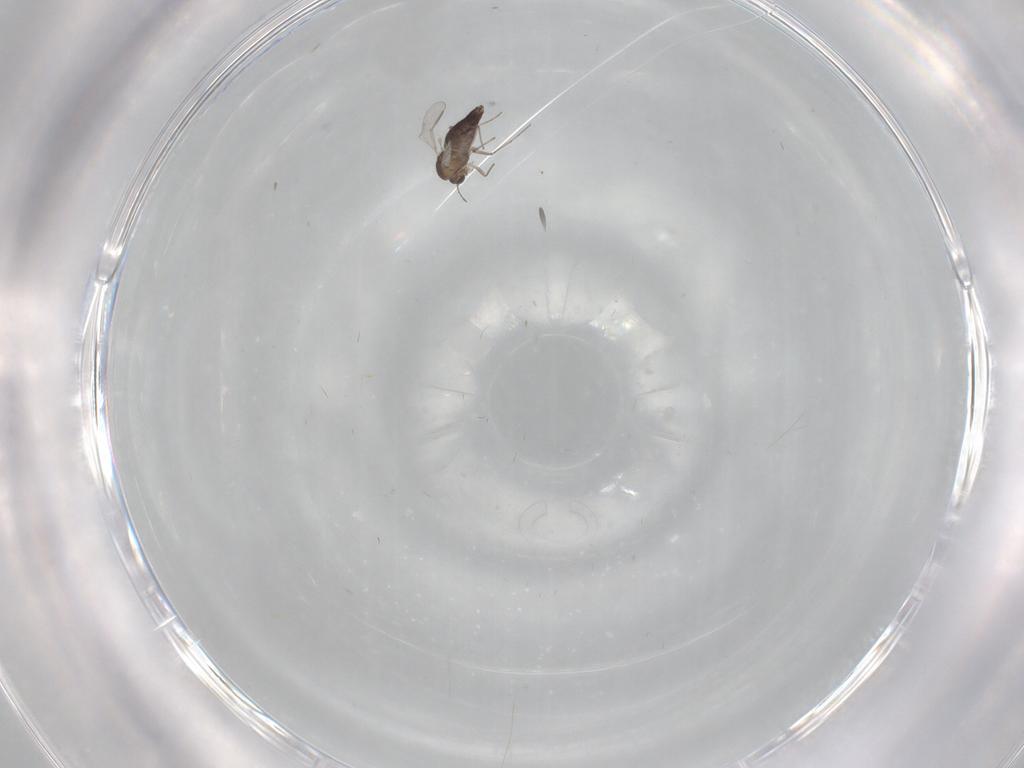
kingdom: Animalia
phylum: Arthropoda
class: Insecta
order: Diptera
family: Chironomidae
